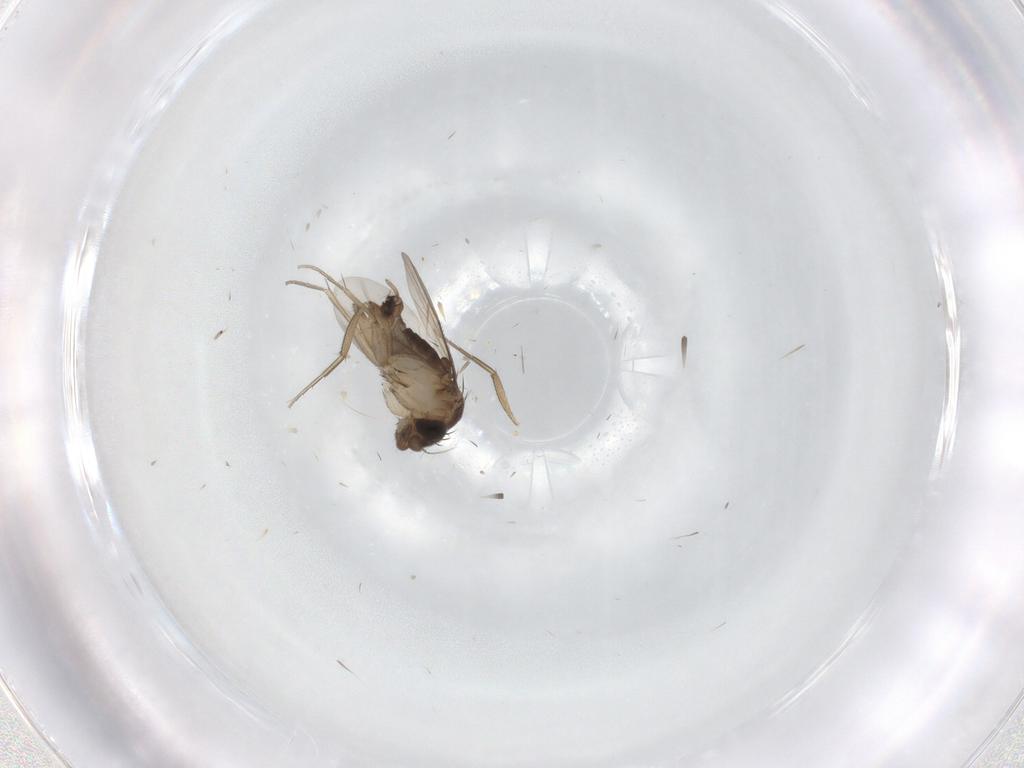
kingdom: Animalia
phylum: Arthropoda
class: Insecta
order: Diptera
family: Phoridae
